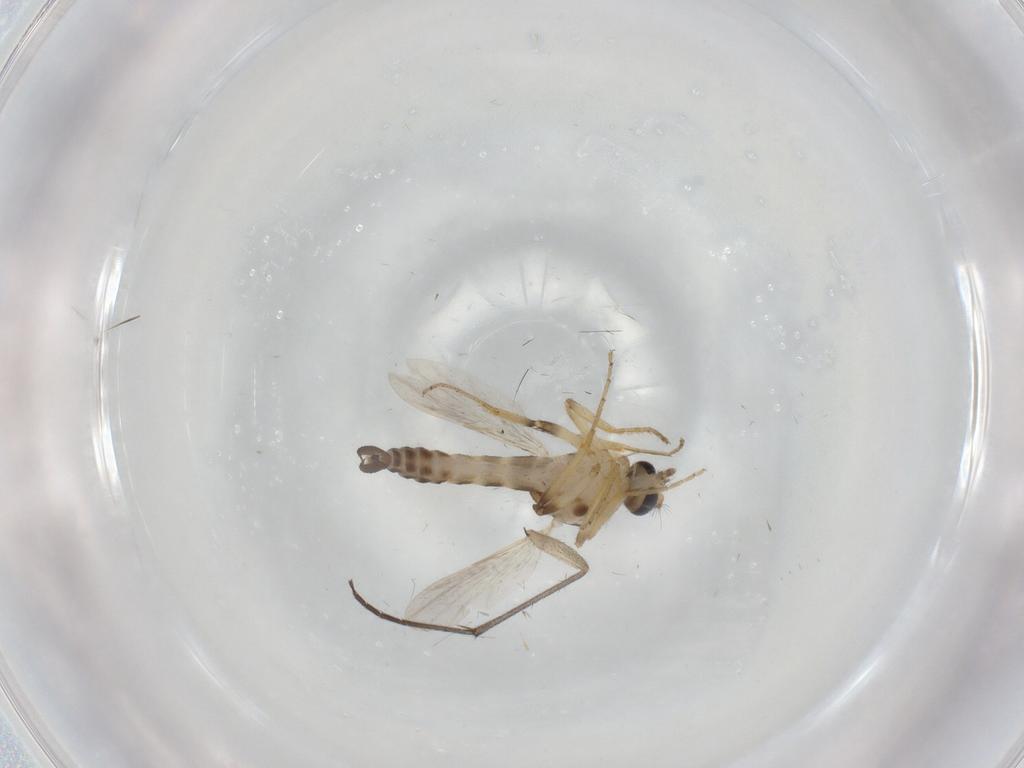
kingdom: Animalia
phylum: Arthropoda
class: Insecta
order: Diptera
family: Sciaridae
